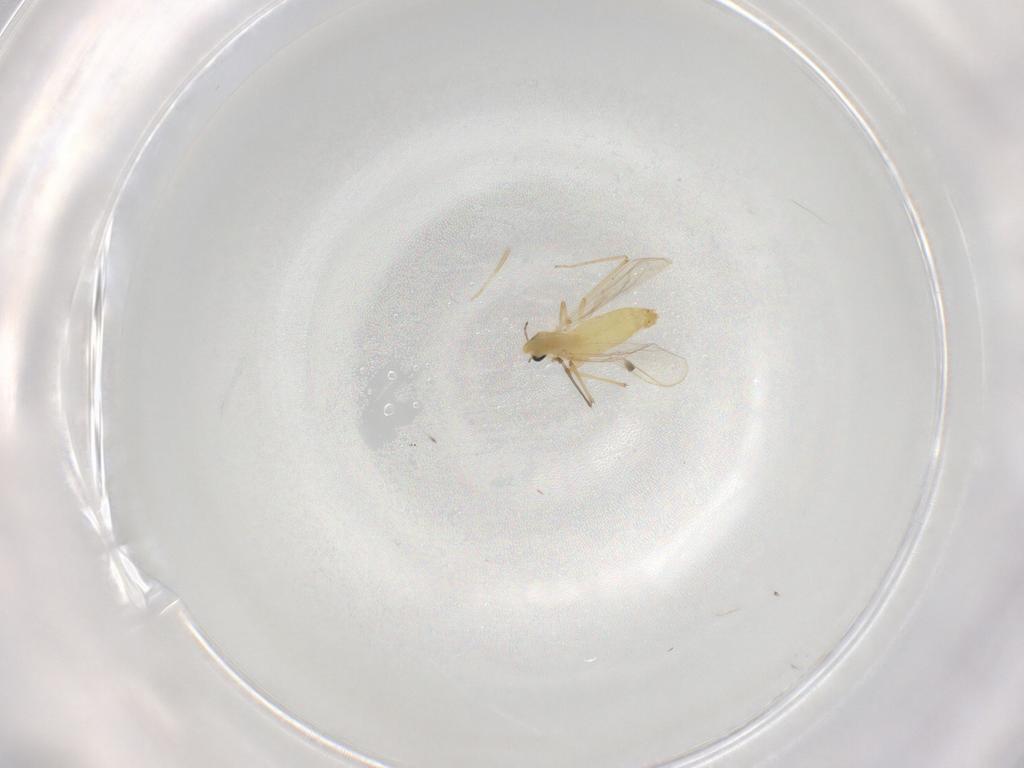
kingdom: Animalia
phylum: Arthropoda
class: Insecta
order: Diptera
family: Chironomidae
